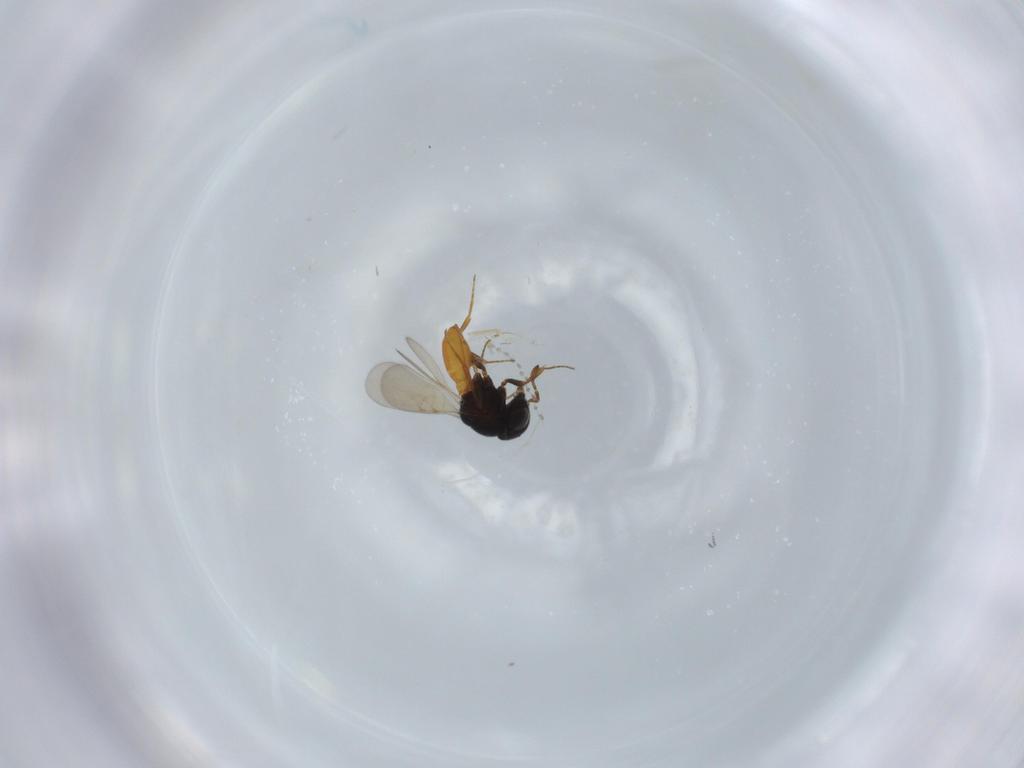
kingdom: Animalia
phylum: Arthropoda
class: Insecta
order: Hymenoptera
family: Scelionidae
